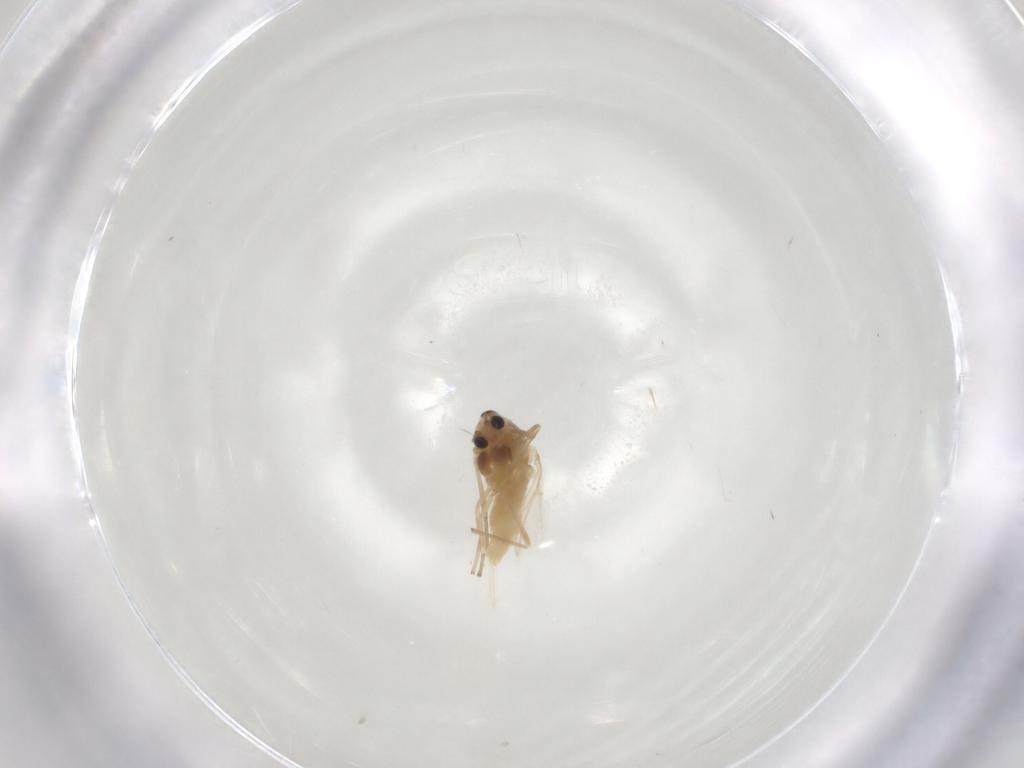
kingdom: Animalia
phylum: Arthropoda
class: Insecta
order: Diptera
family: Chironomidae
